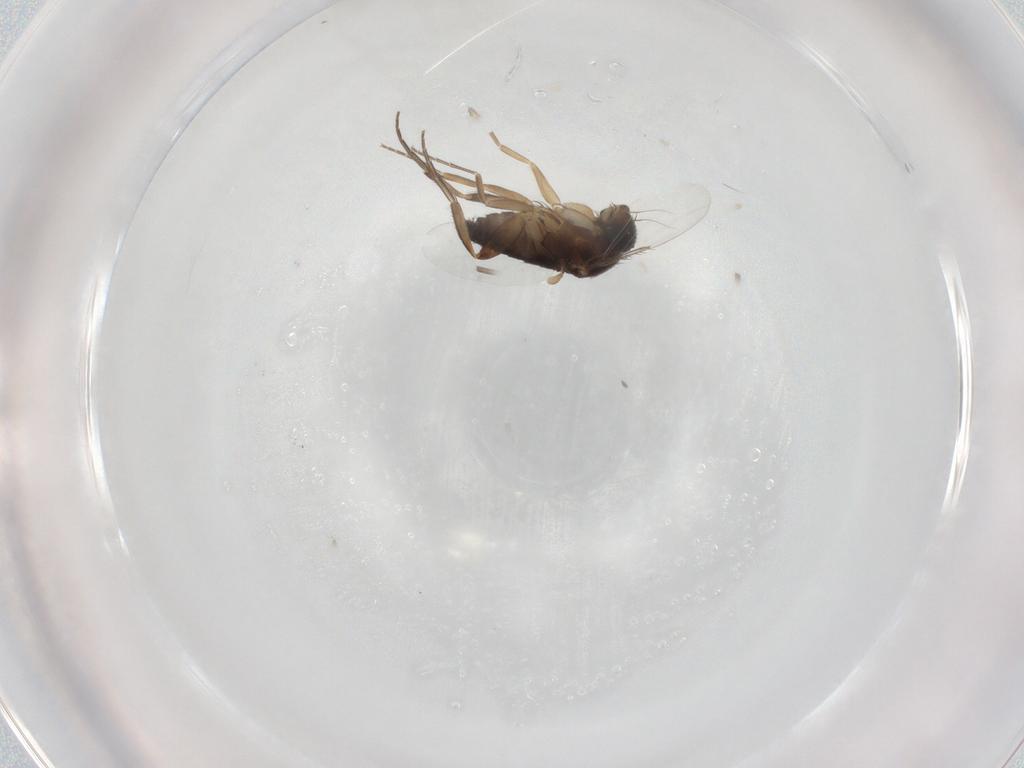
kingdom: Animalia
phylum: Arthropoda
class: Insecta
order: Diptera
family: Phoridae
